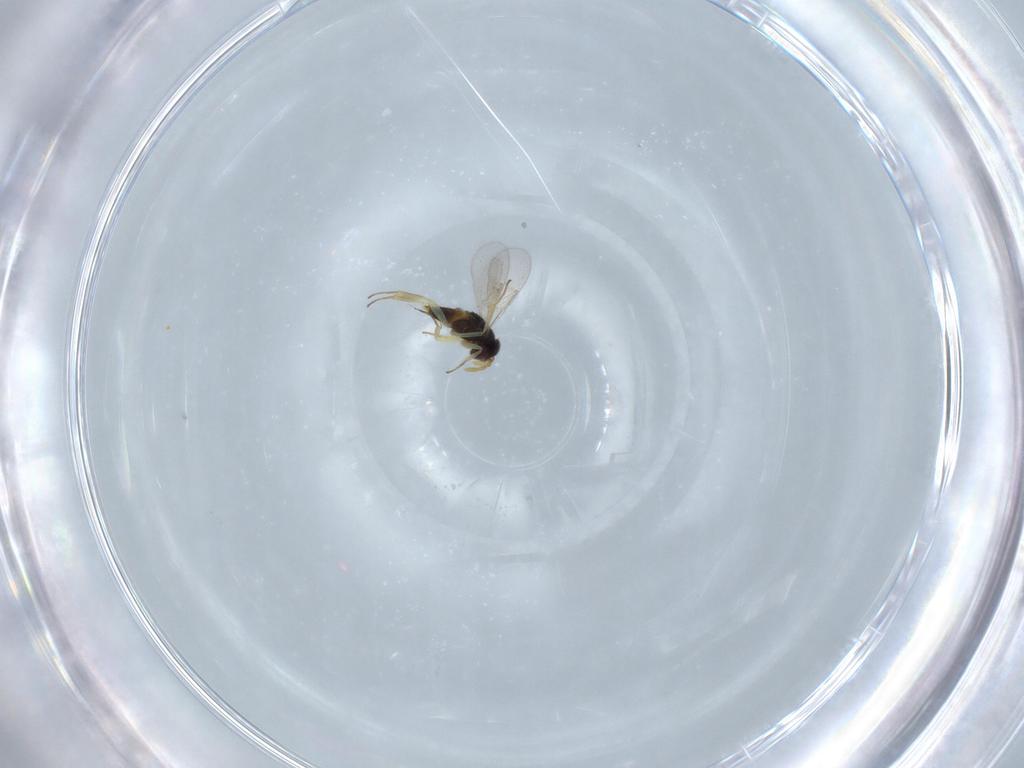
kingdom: Animalia
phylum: Arthropoda
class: Insecta
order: Hymenoptera
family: Aphelinidae
